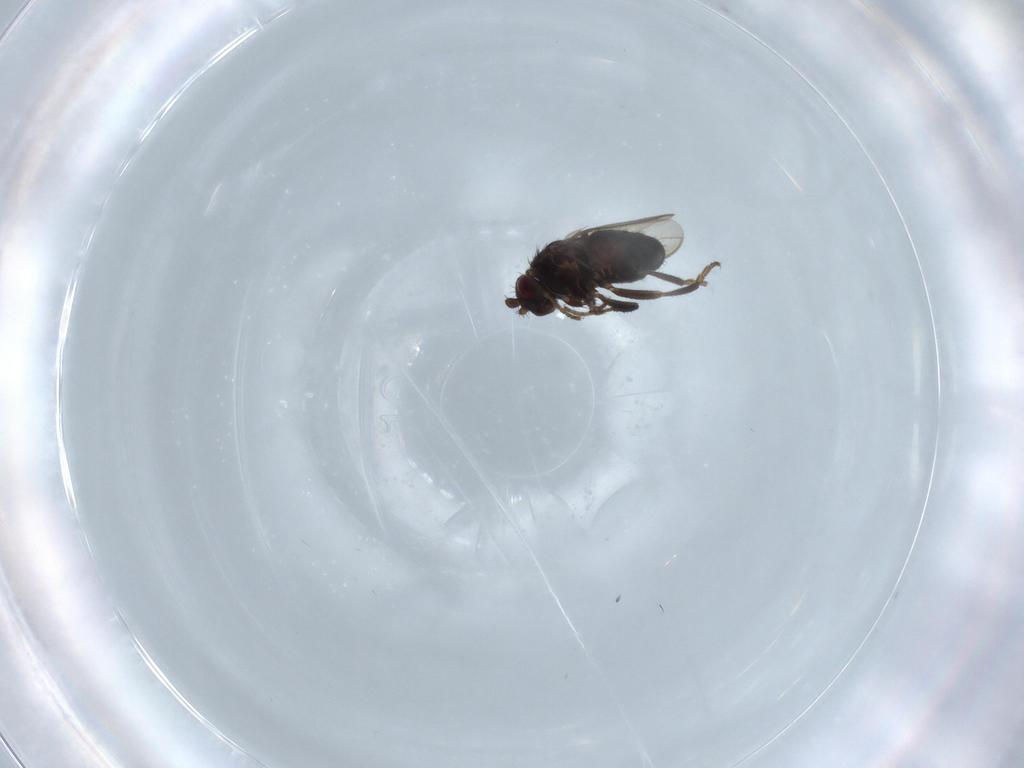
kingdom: Animalia
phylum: Arthropoda
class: Insecta
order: Diptera
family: Sphaeroceridae
